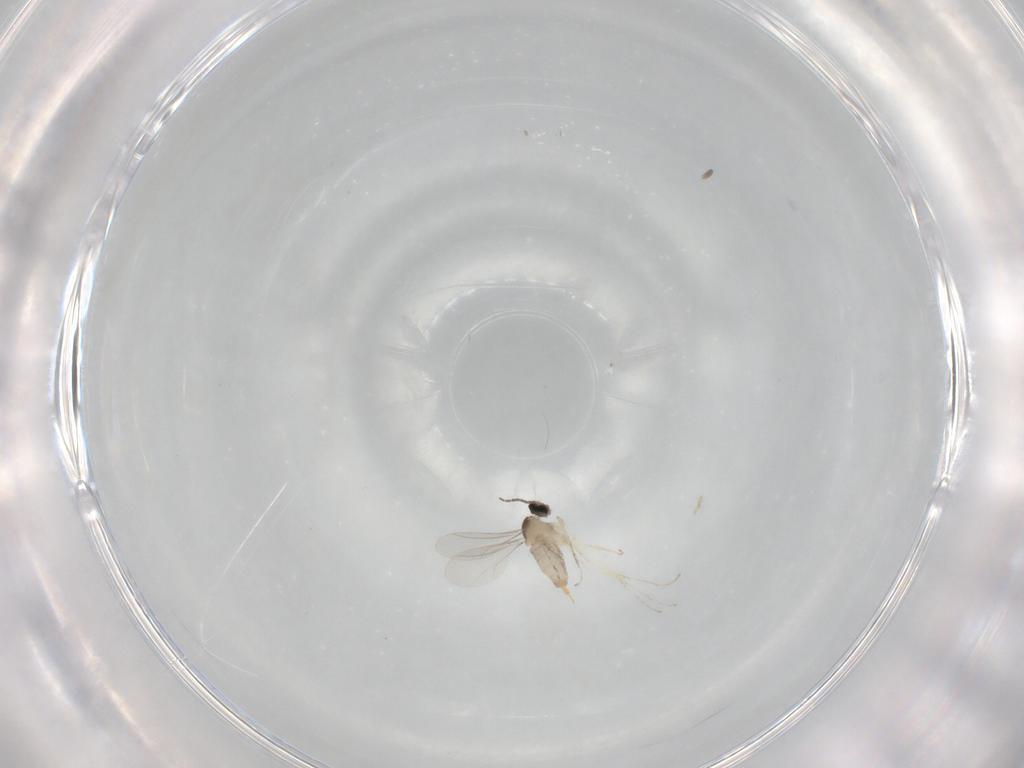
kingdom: Animalia
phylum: Arthropoda
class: Insecta
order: Diptera
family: Cecidomyiidae
